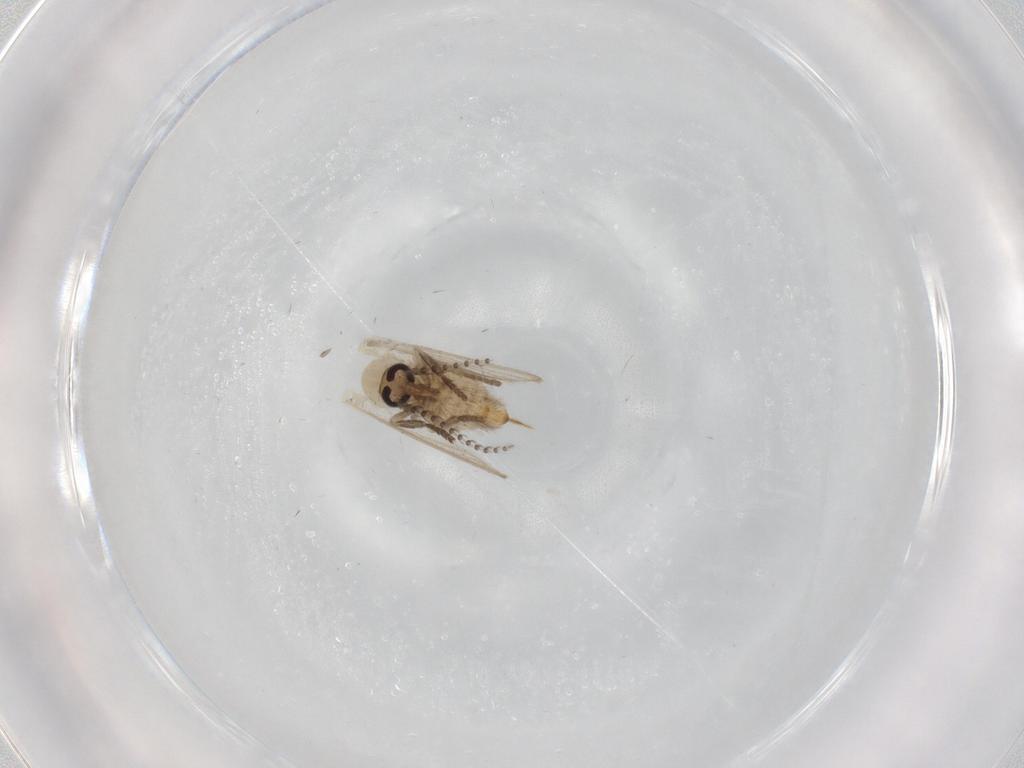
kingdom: Animalia
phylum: Arthropoda
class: Insecta
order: Diptera
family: Psychodidae
